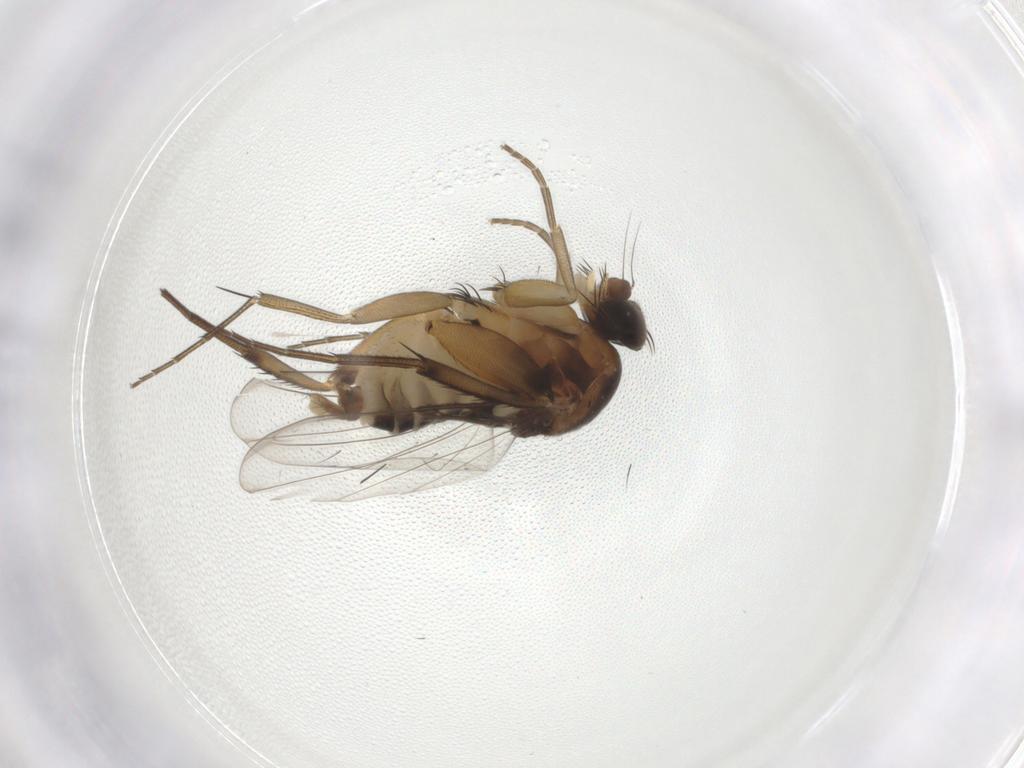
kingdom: Animalia
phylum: Arthropoda
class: Insecta
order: Diptera
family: Phoridae
